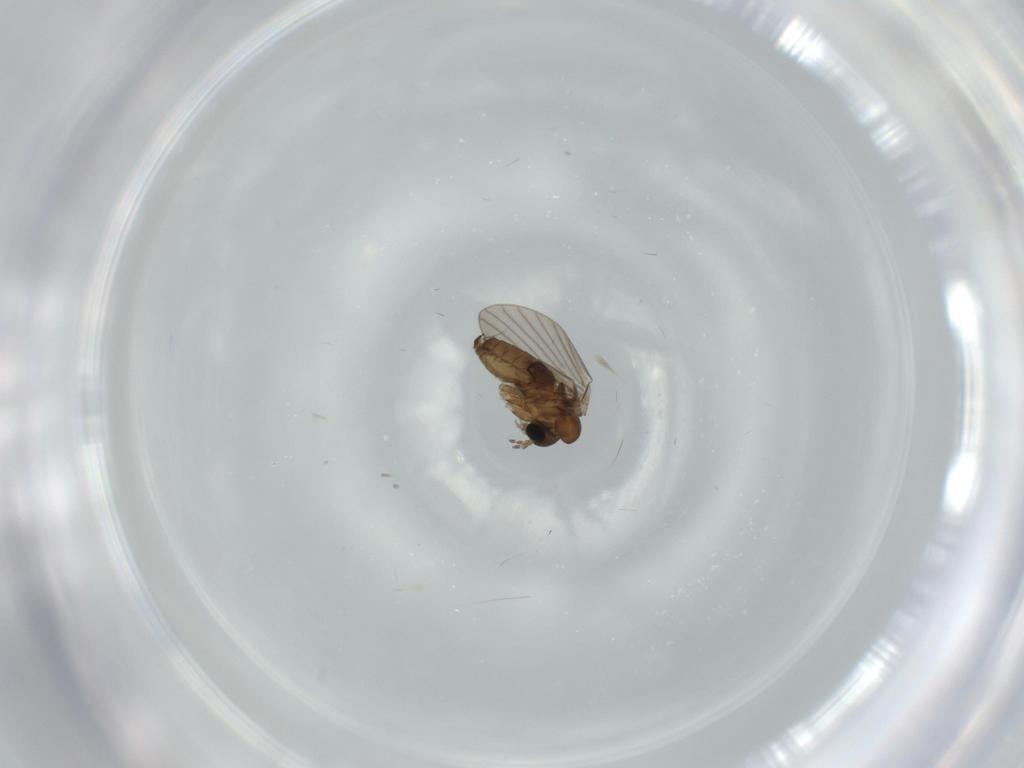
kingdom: Animalia
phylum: Arthropoda
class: Insecta
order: Diptera
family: Psychodidae
